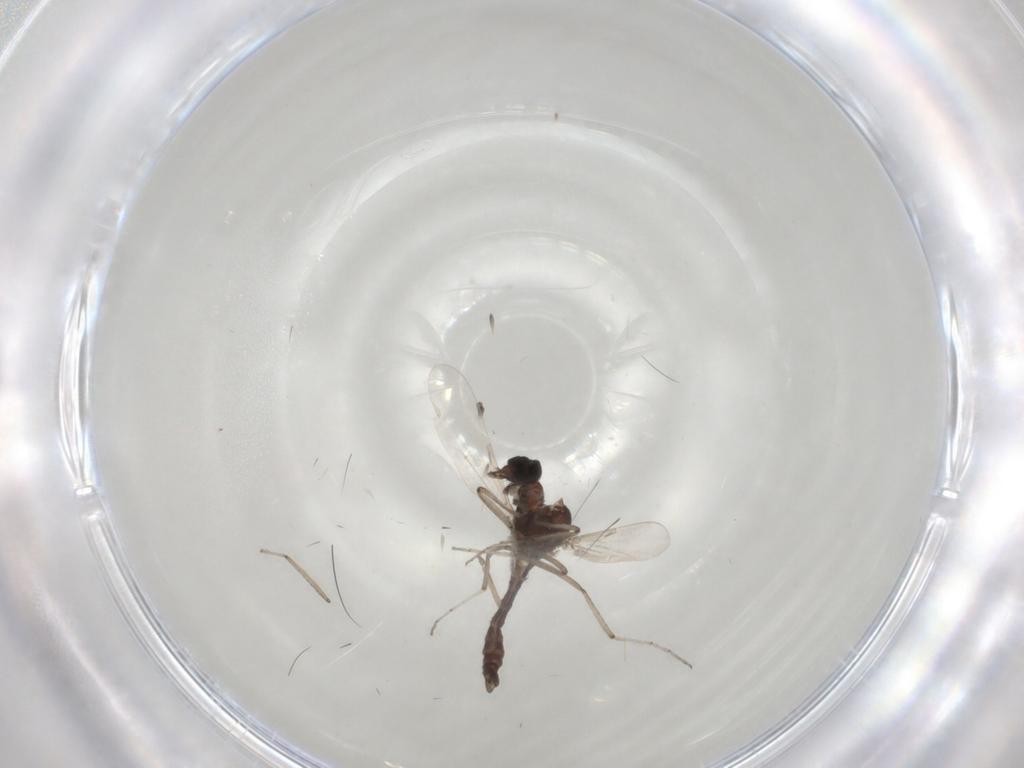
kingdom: Animalia
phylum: Arthropoda
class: Insecta
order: Diptera
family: Ceratopogonidae
